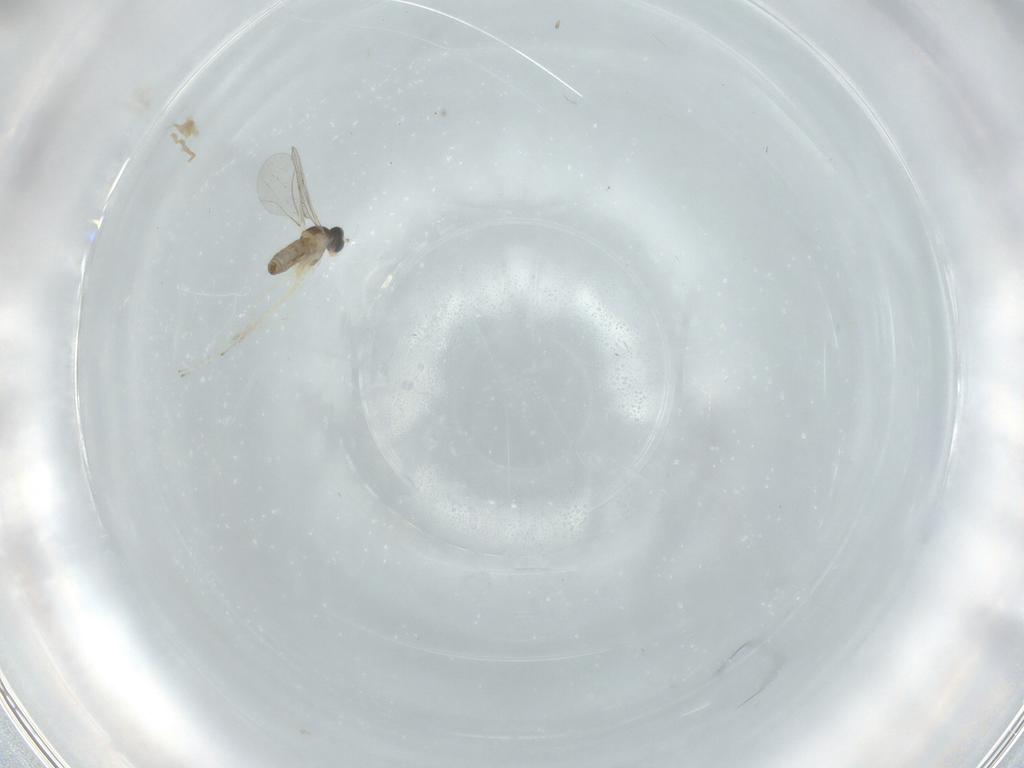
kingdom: Animalia
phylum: Arthropoda
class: Insecta
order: Diptera
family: Cecidomyiidae
